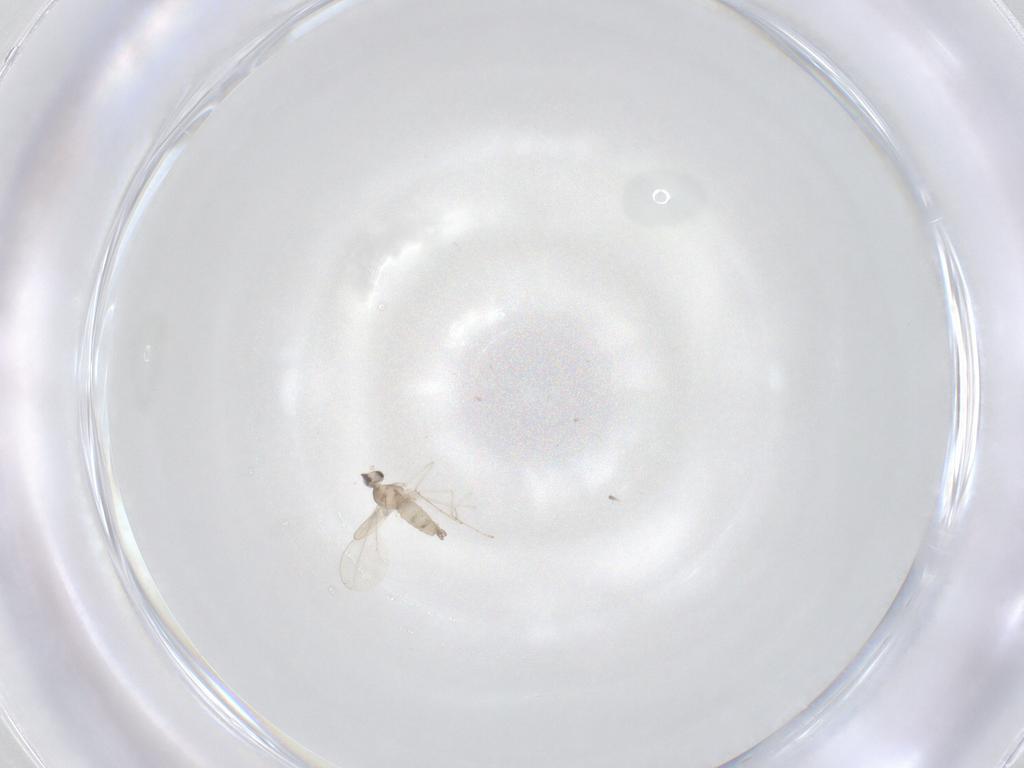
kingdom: Animalia
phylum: Arthropoda
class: Insecta
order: Diptera
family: Cecidomyiidae
